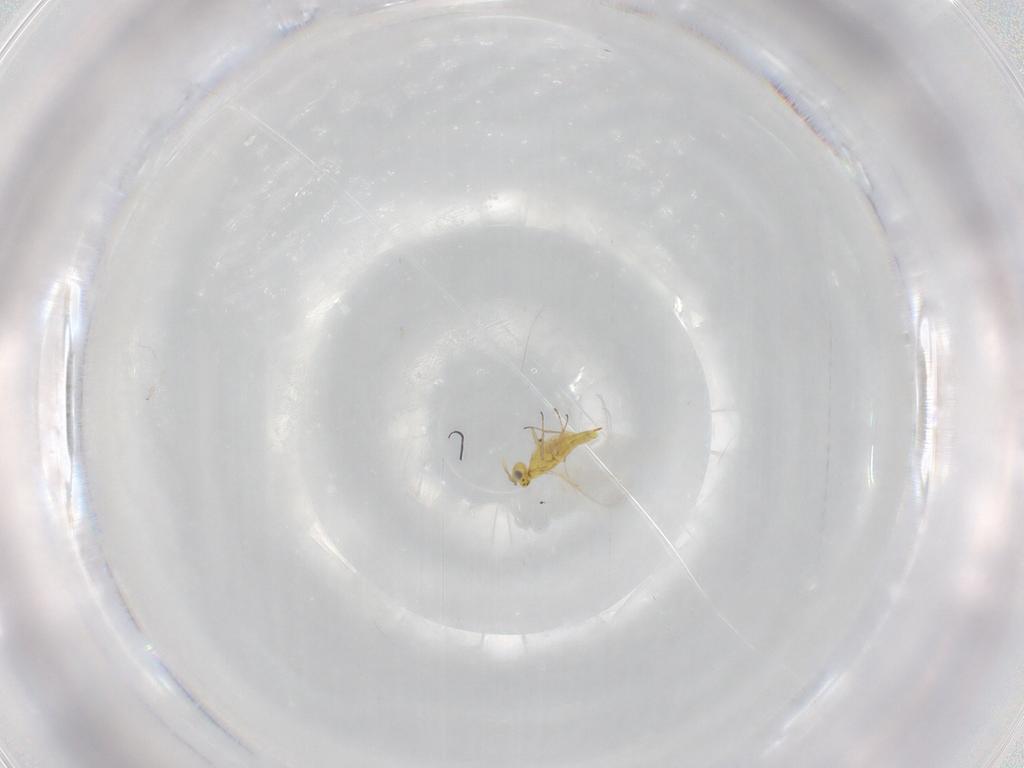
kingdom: Animalia
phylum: Arthropoda
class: Insecta
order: Hymenoptera
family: Aphelinidae
